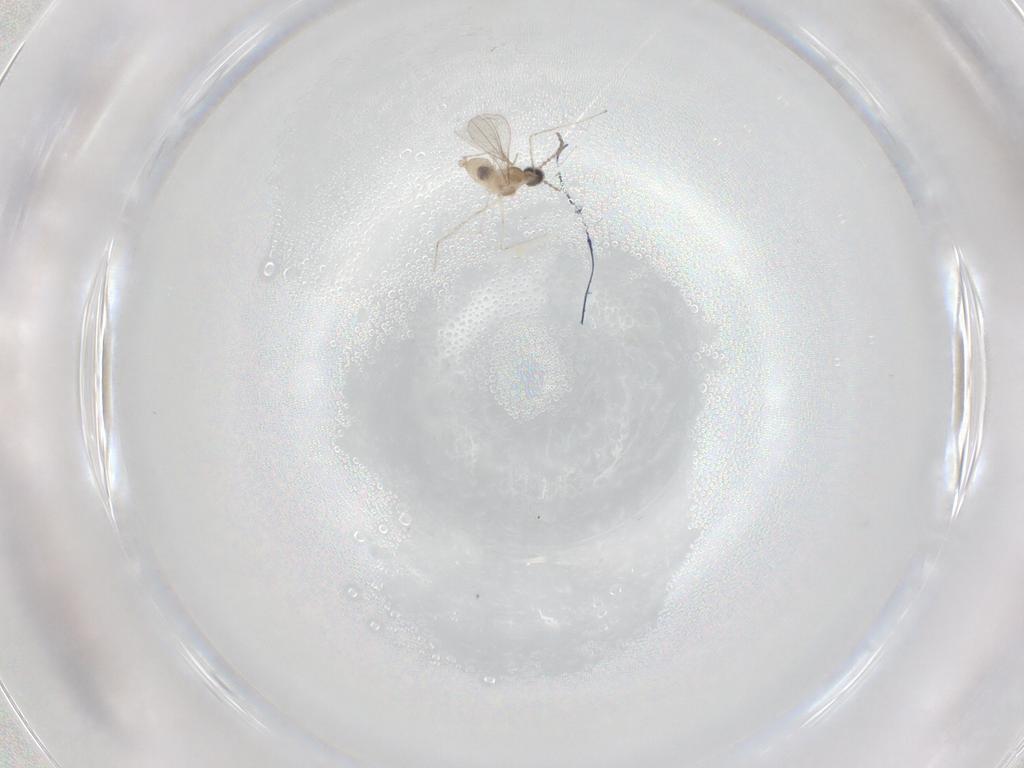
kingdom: Animalia
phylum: Arthropoda
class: Insecta
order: Diptera
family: Cecidomyiidae
